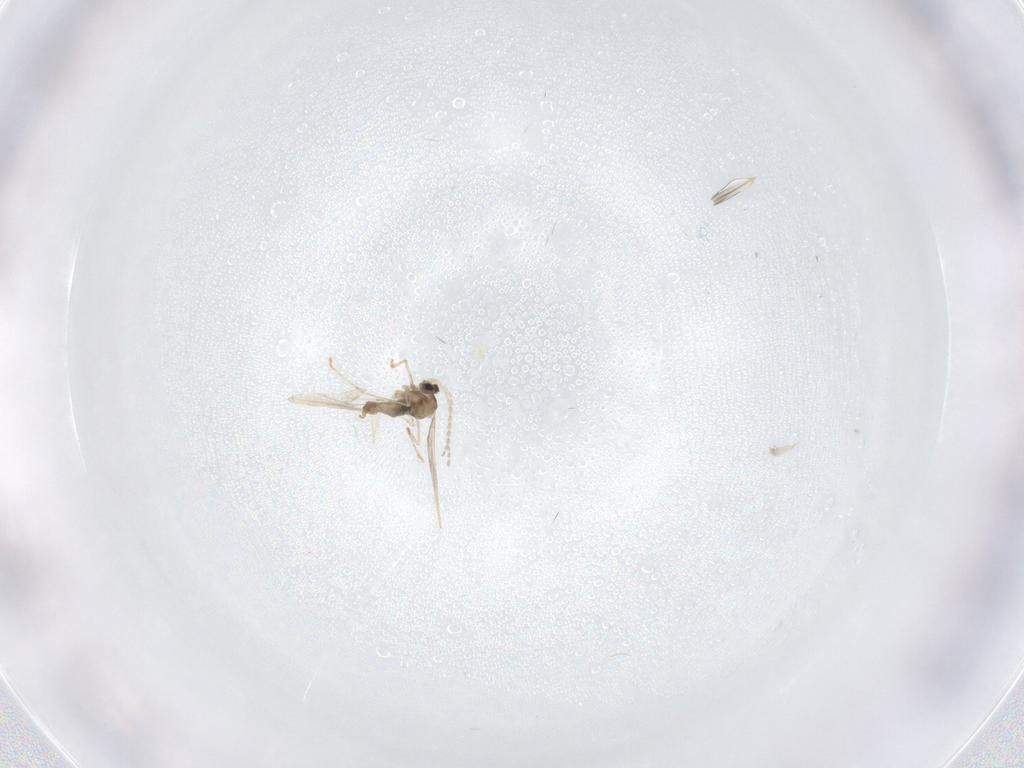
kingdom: Animalia
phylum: Arthropoda
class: Insecta
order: Diptera
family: Cecidomyiidae
